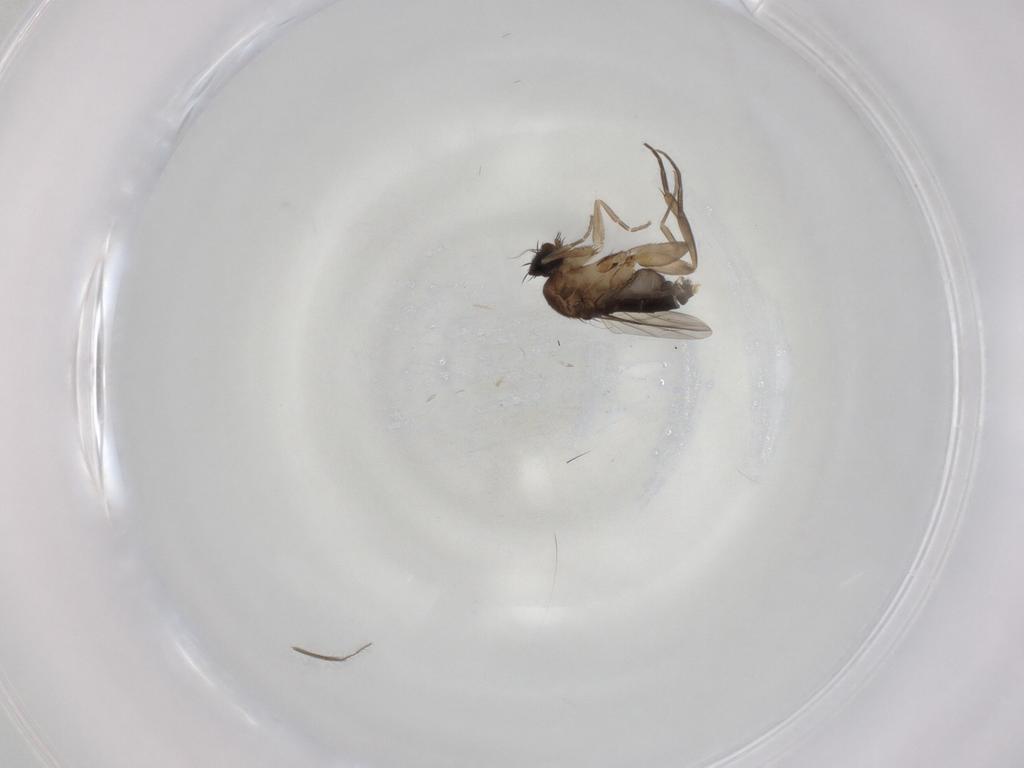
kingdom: Animalia
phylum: Arthropoda
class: Insecta
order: Diptera
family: Phoridae
